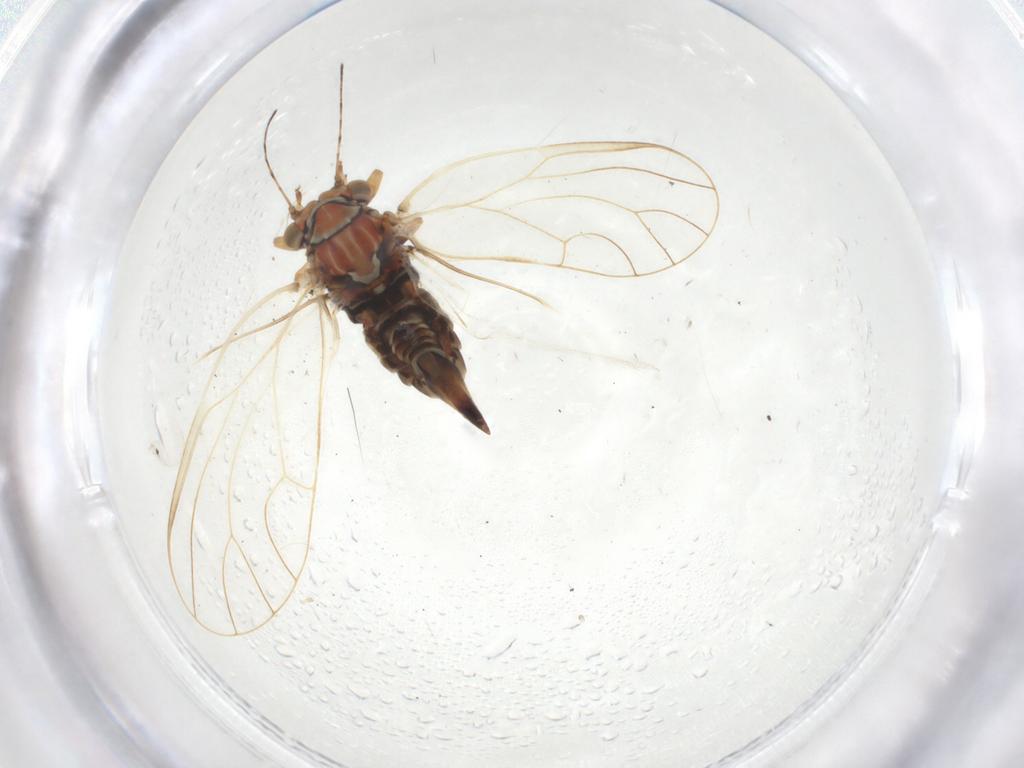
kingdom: Animalia
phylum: Arthropoda
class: Insecta
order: Hemiptera
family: Psyllidae
